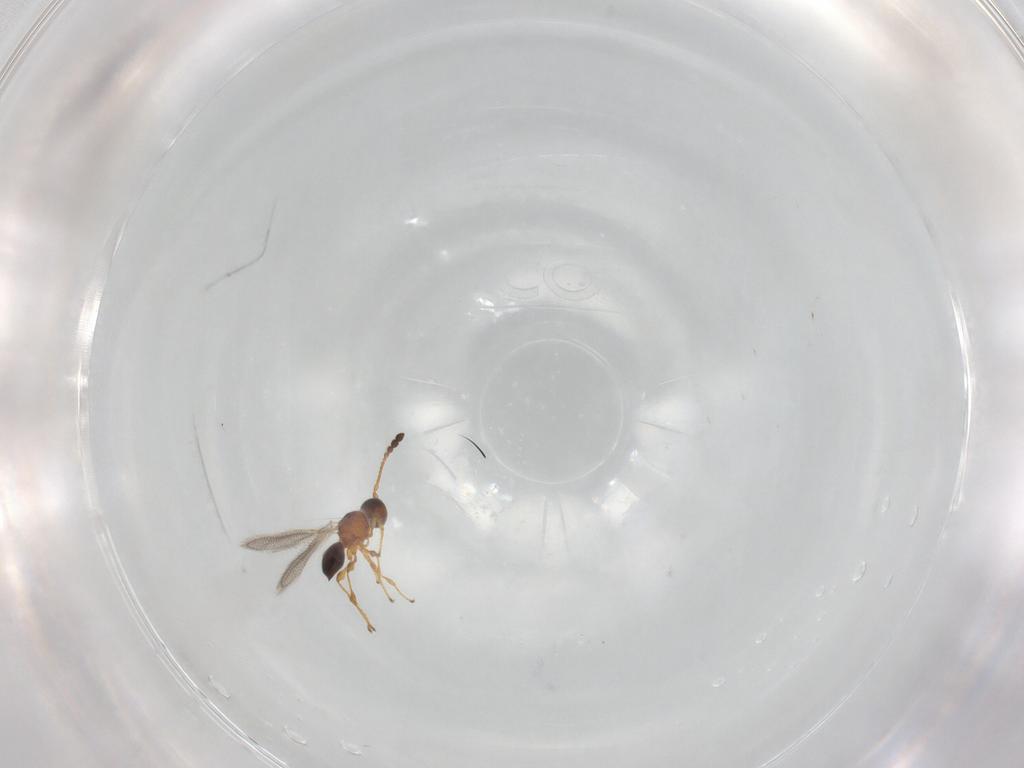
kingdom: Animalia
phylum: Arthropoda
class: Insecta
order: Hymenoptera
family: Diapriidae
